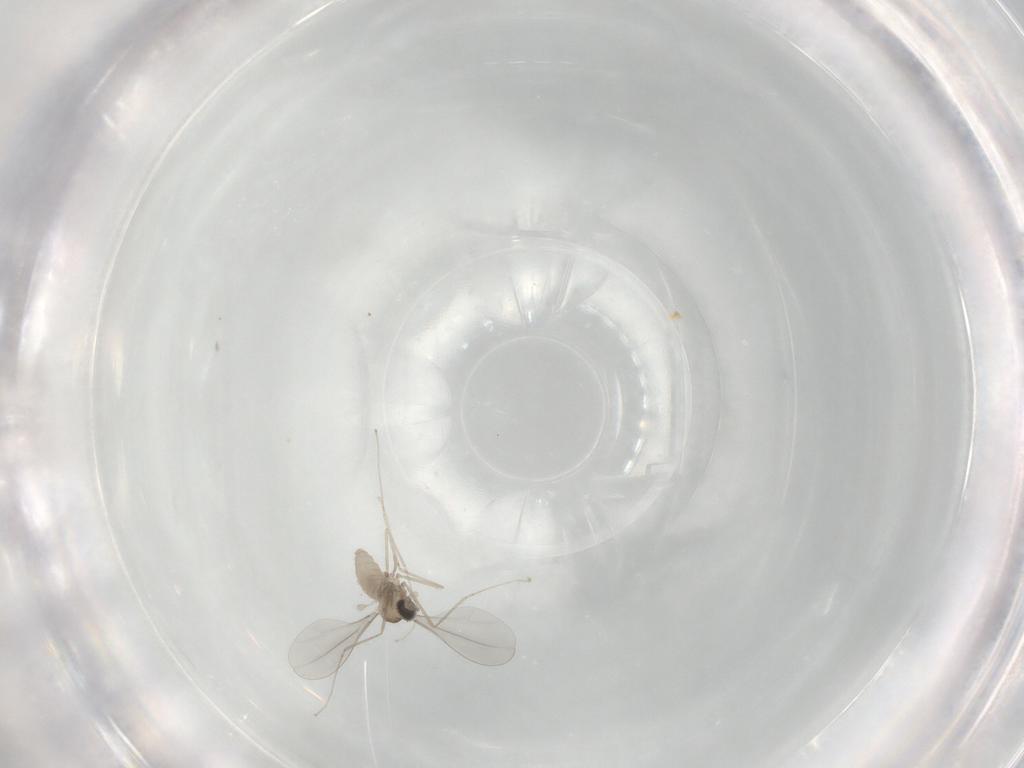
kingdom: Animalia
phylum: Arthropoda
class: Insecta
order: Diptera
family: Cecidomyiidae
